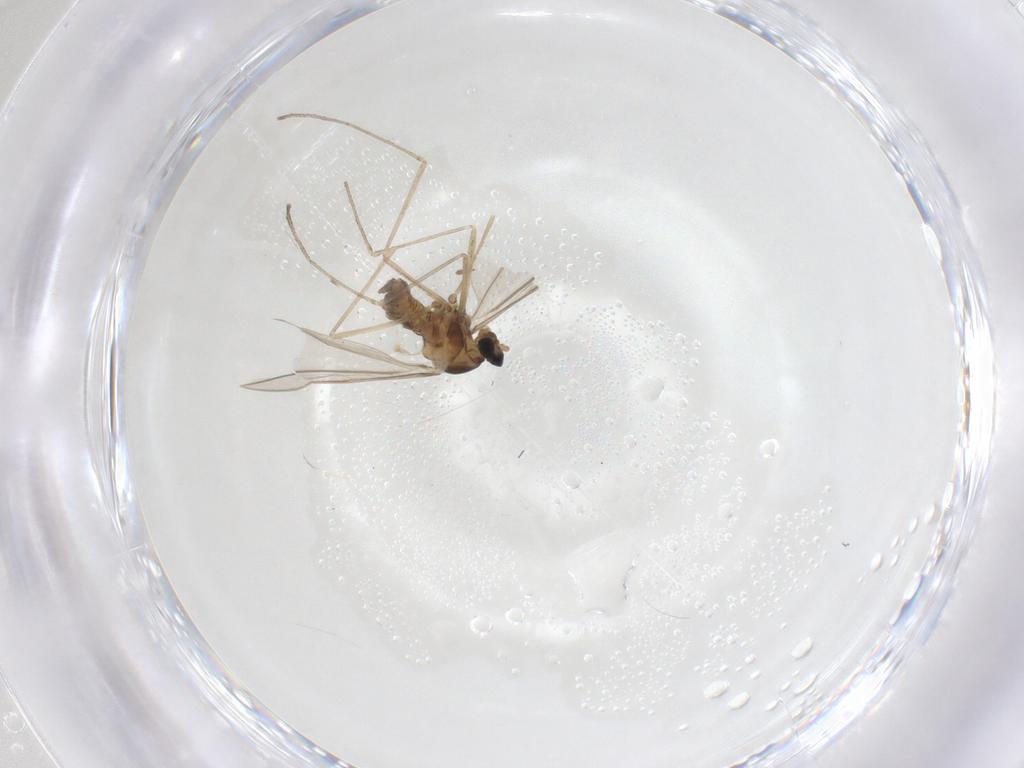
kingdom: Animalia
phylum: Arthropoda
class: Insecta
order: Diptera
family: Cecidomyiidae
